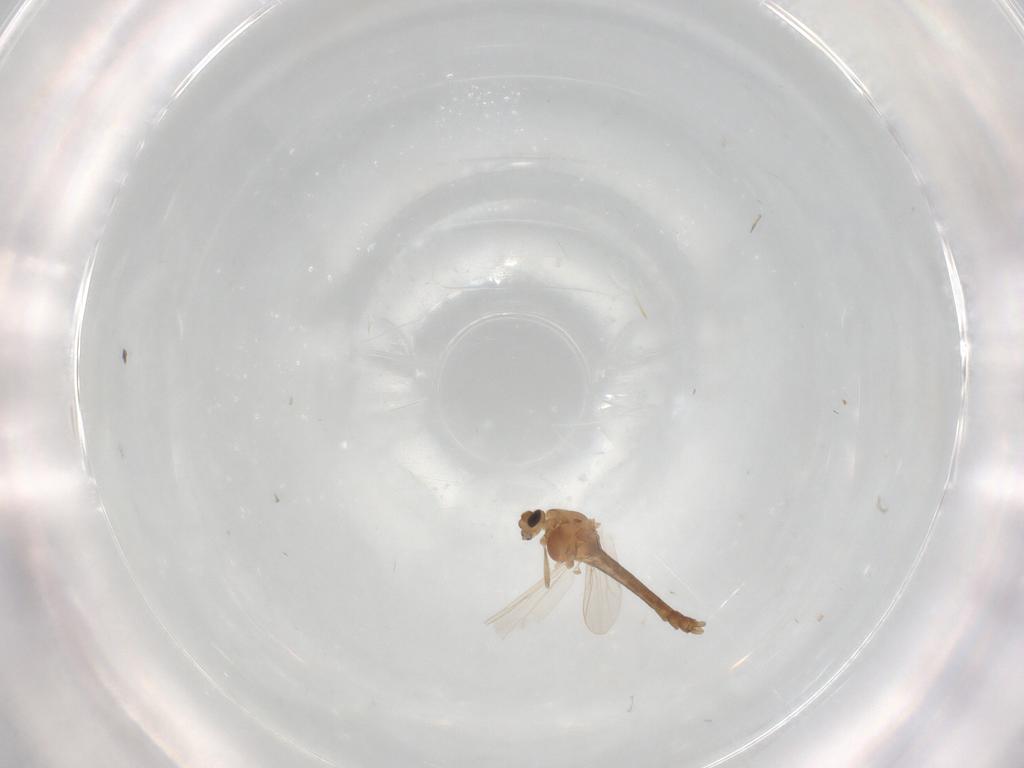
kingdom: Animalia
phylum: Arthropoda
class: Insecta
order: Diptera
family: Chironomidae
